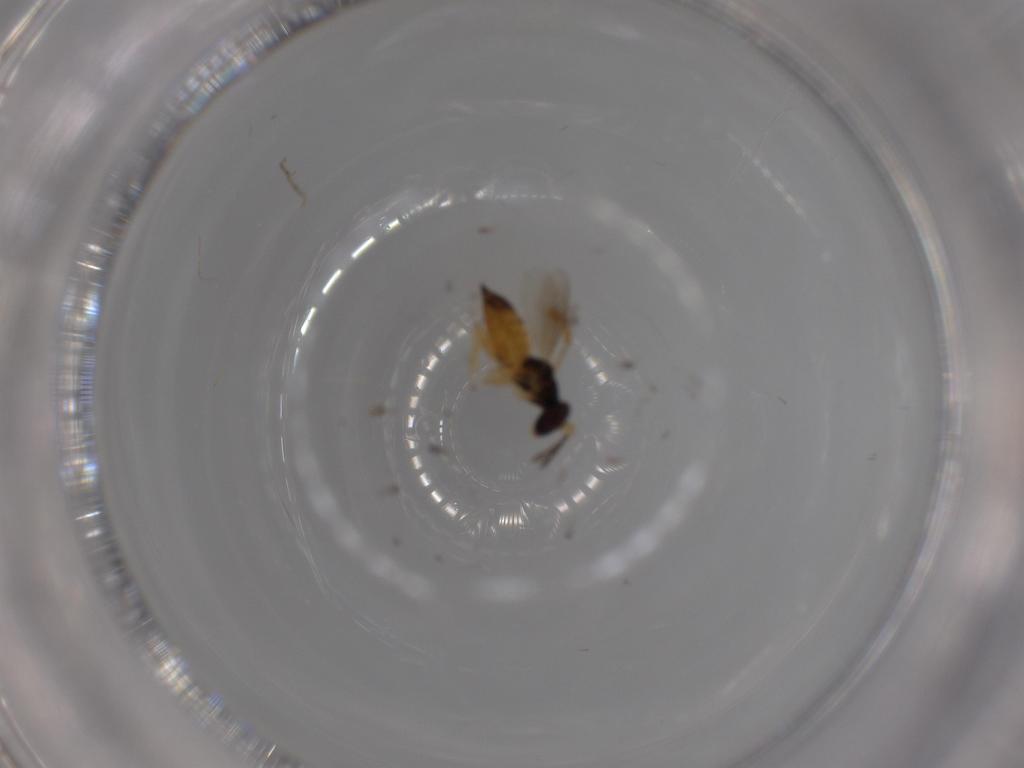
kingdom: Animalia
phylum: Arthropoda
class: Insecta
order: Hymenoptera
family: Eulophidae
